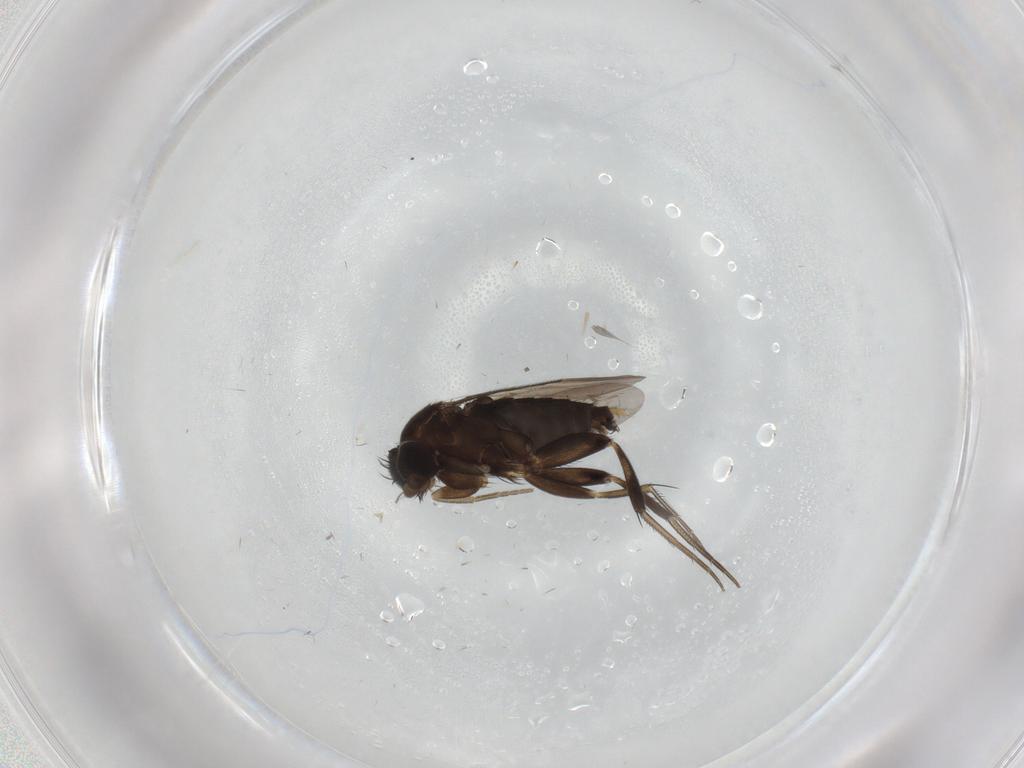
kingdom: Animalia
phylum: Arthropoda
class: Insecta
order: Diptera
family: Phoridae
